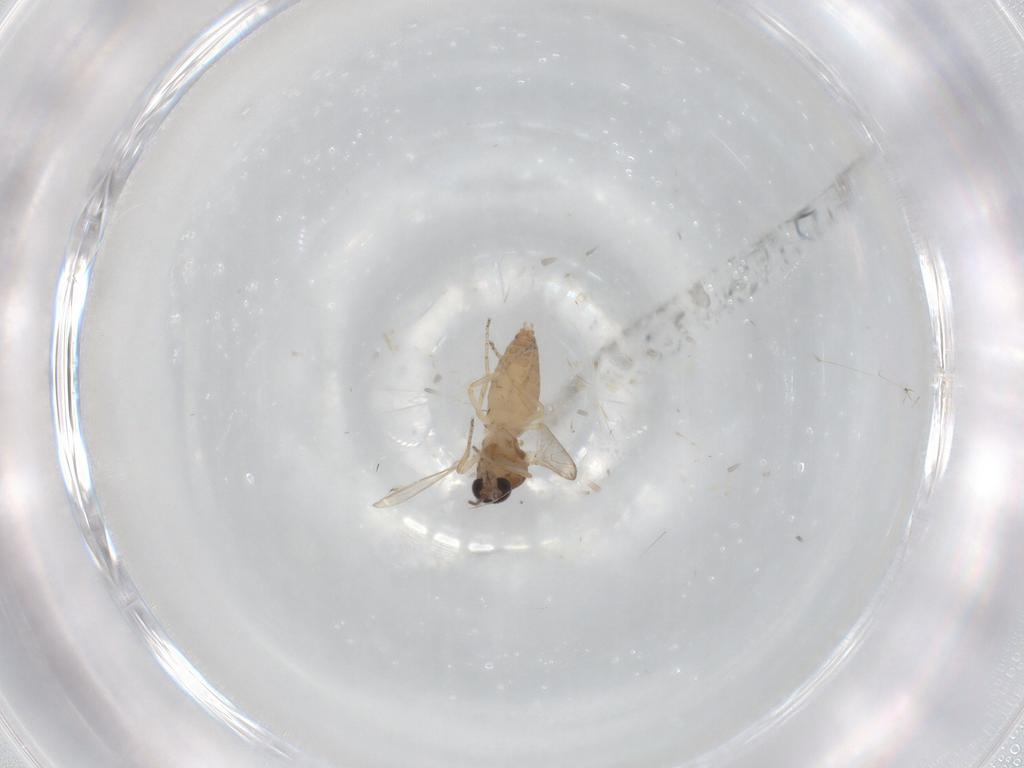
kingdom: Animalia
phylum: Arthropoda
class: Insecta
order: Diptera
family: Ceratopogonidae
